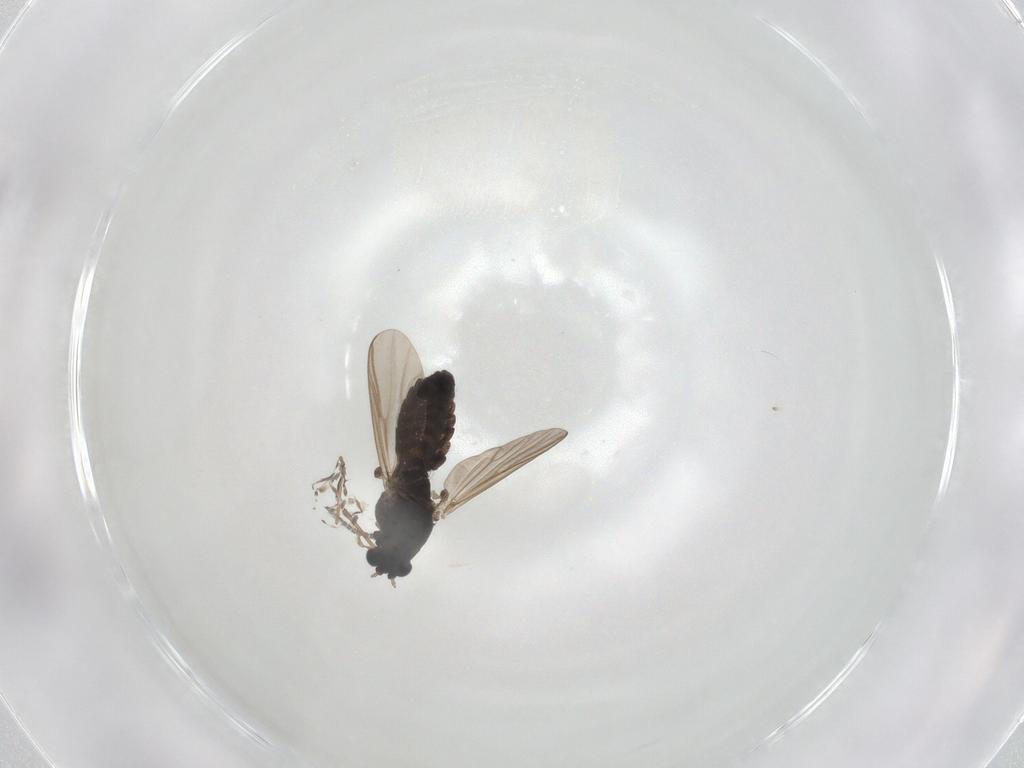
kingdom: Animalia
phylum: Arthropoda
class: Insecta
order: Diptera
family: Chironomidae
